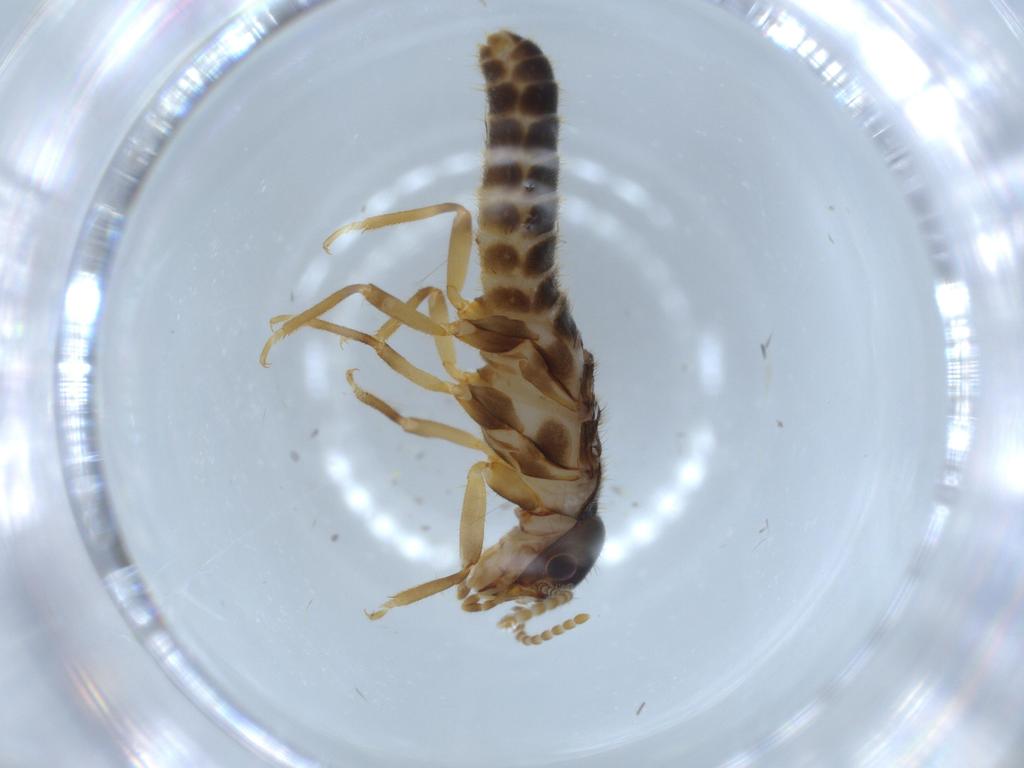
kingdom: Animalia
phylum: Arthropoda
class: Insecta
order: Blattodea
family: Termitidae
